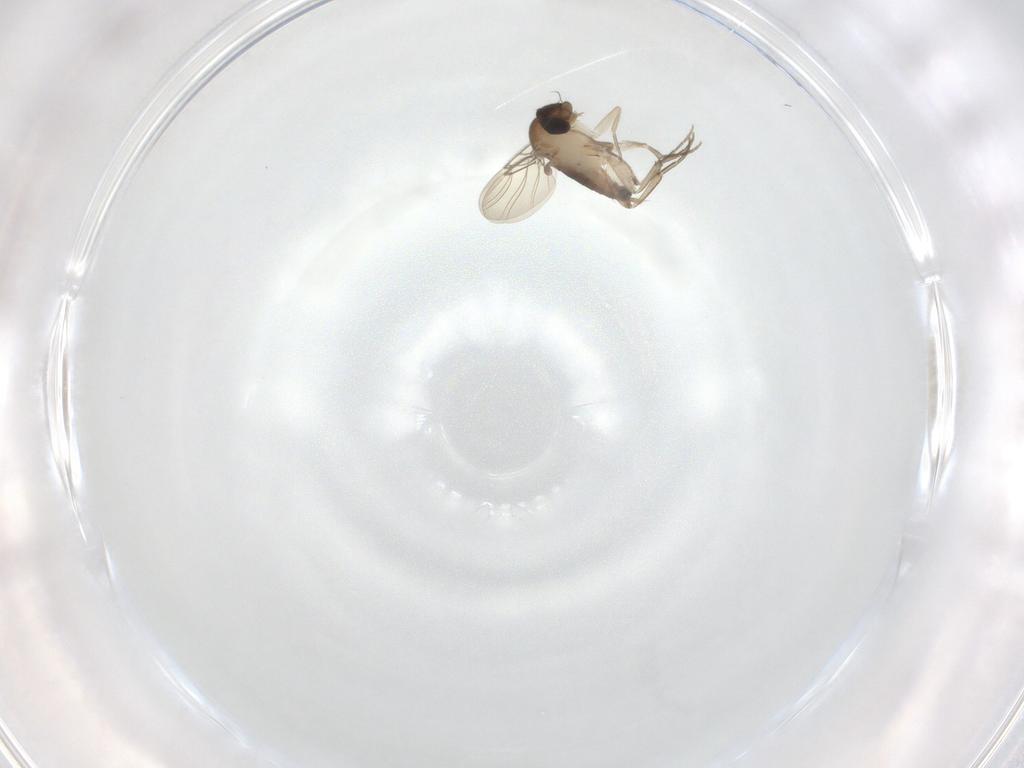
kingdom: Animalia
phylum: Arthropoda
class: Insecta
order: Diptera
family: Phoridae
